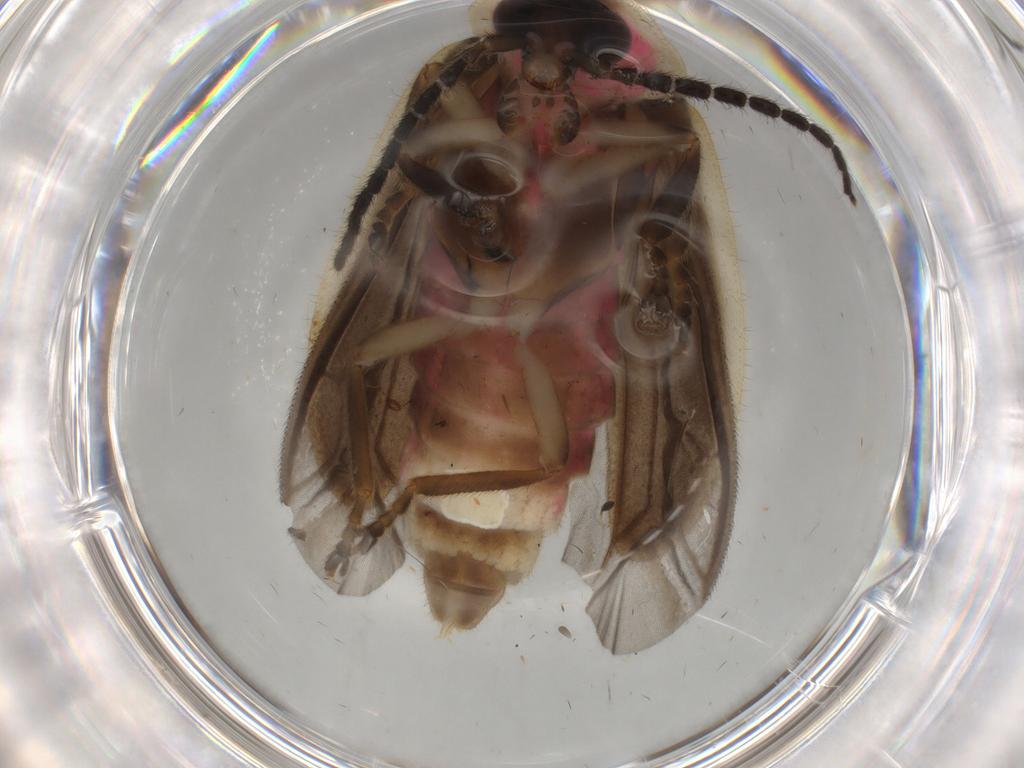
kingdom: Animalia
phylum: Arthropoda
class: Insecta
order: Coleoptera
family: Lampyridae
